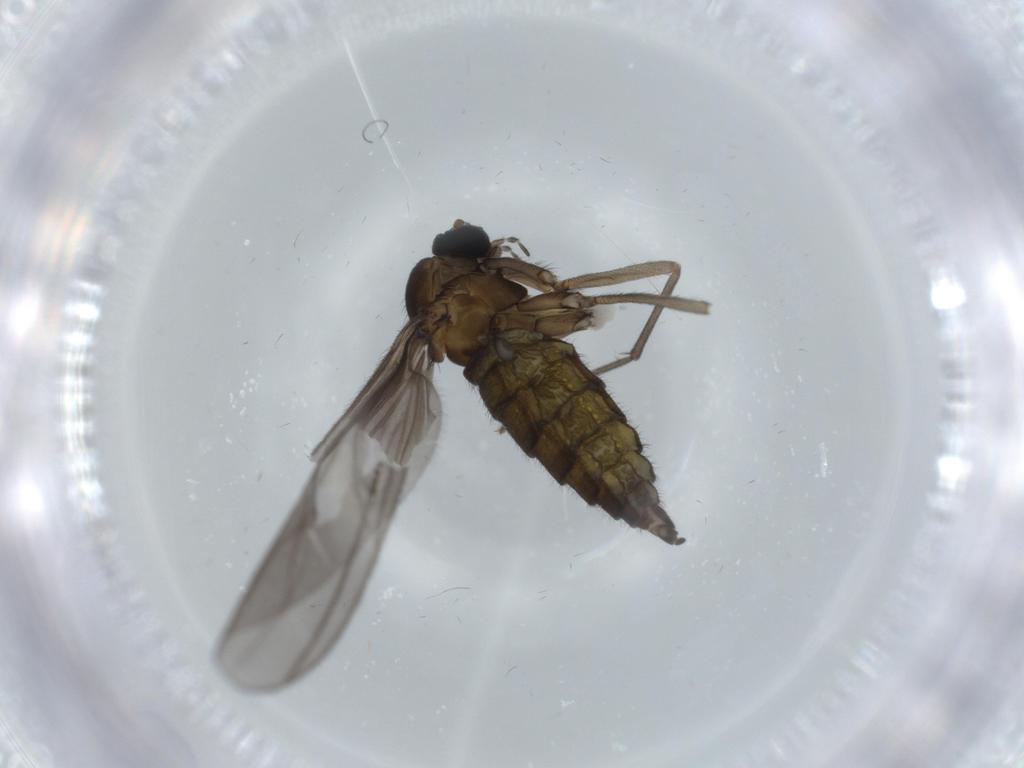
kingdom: Animalia
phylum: Arthropoda
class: Insecta
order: Diptera
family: Sciaridae
